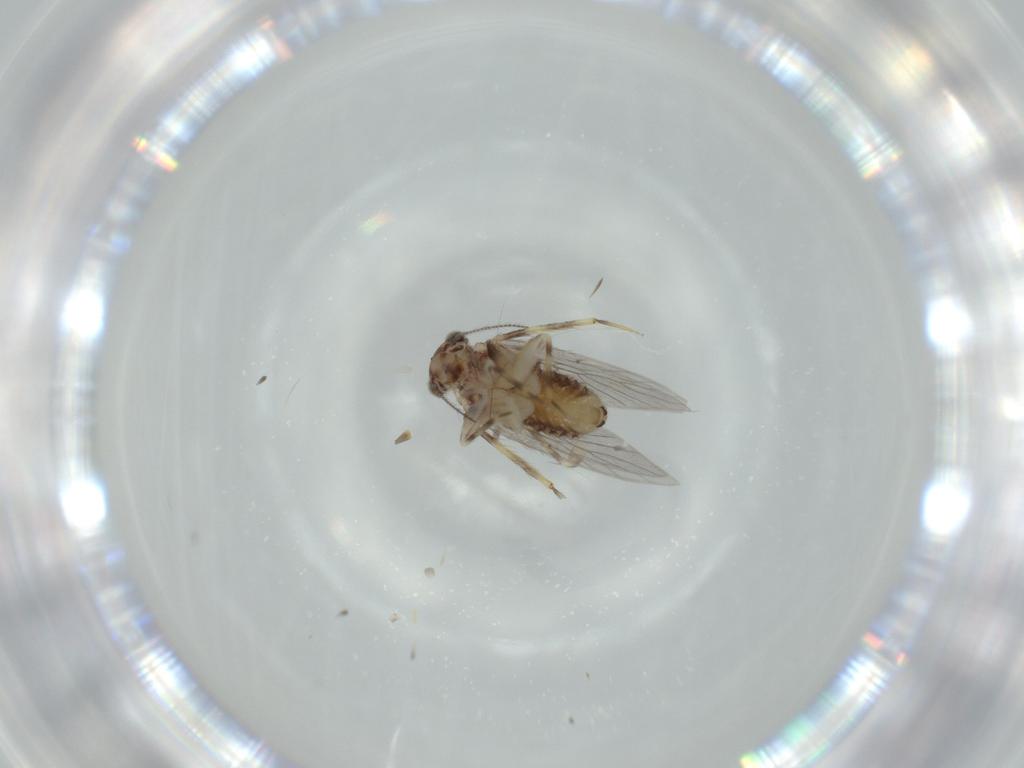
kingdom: Animalia
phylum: Arthropoda
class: Insecta
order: Psocodea
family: Lepidopsocidae
